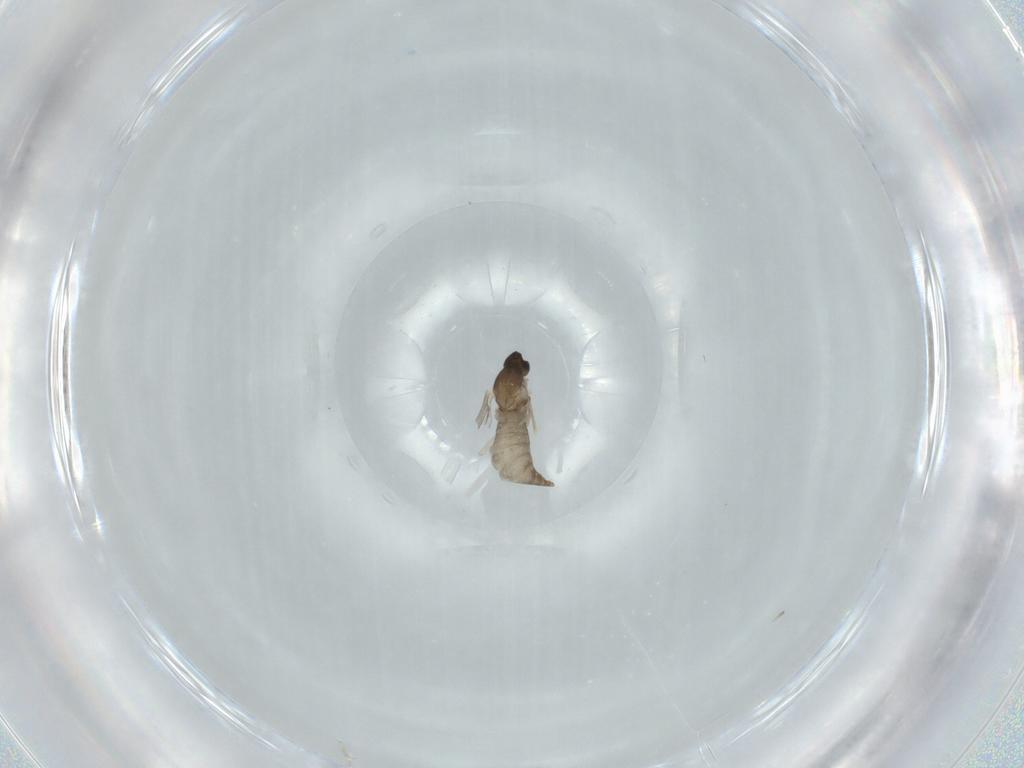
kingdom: Animalia
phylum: Arthropoda
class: Insecta
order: Diptera
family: Cecidomyiidae
